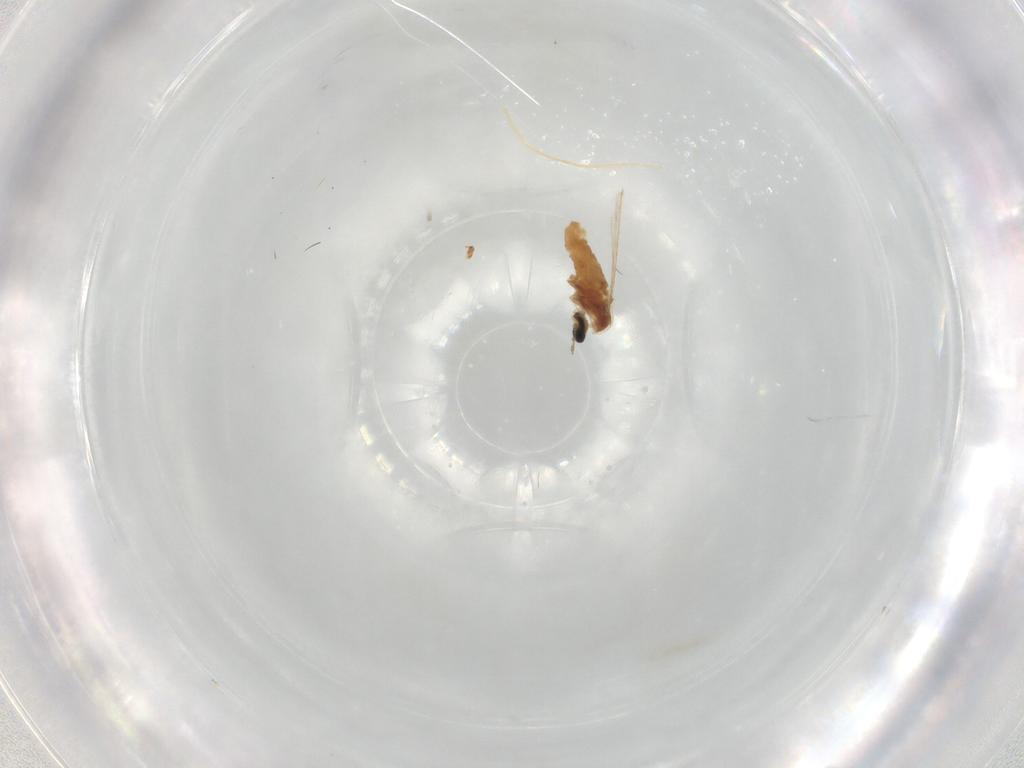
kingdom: Animalia
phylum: Arthropoda
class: Insecta
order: Diptera
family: Cecidomyiidae
